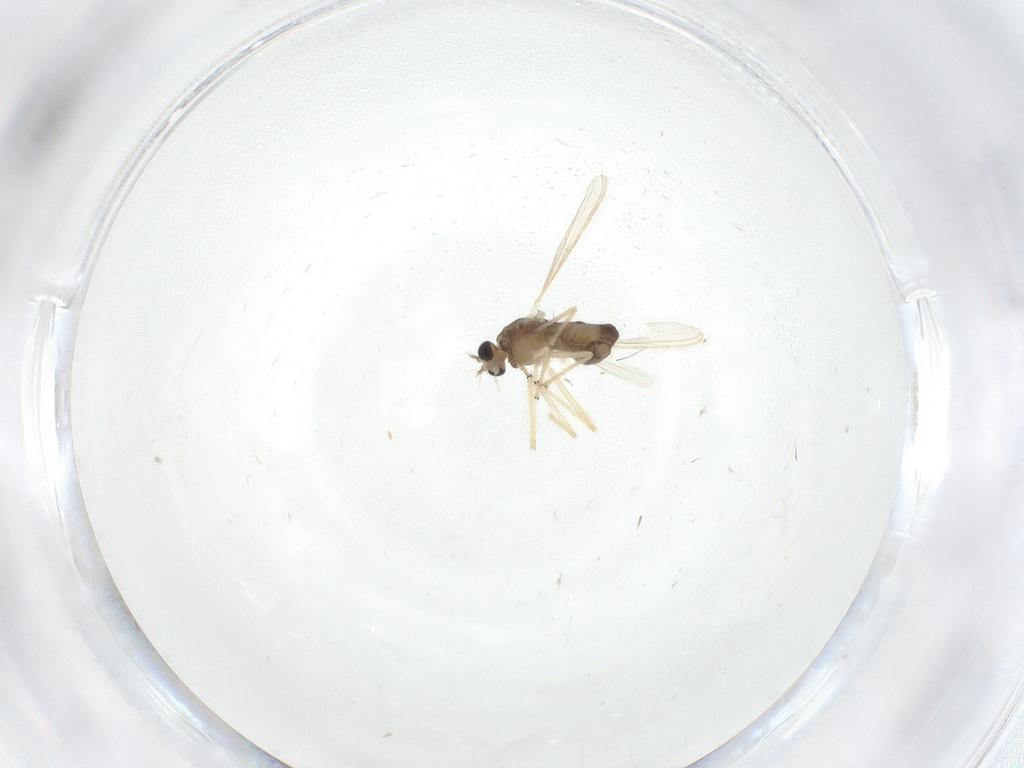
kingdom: Animalia
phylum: Arthropoda
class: Insecta
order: Diptera
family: Chironomidae
